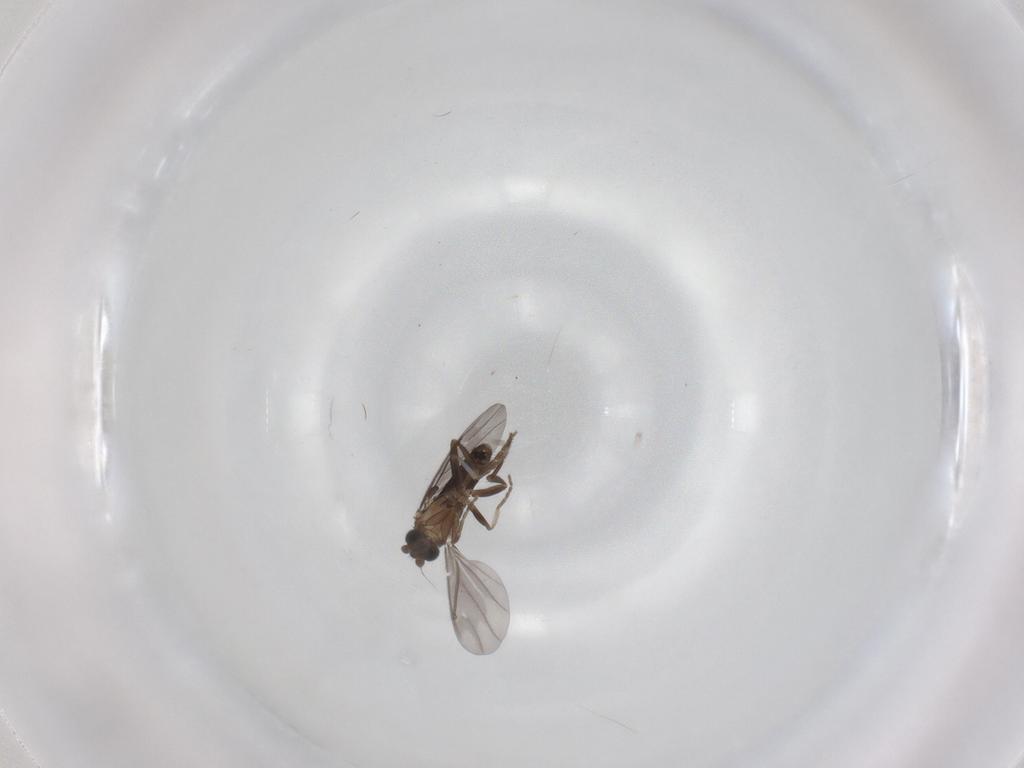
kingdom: Animalia
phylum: Arthropoda
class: Insecta
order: Diptera
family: Phoridae
